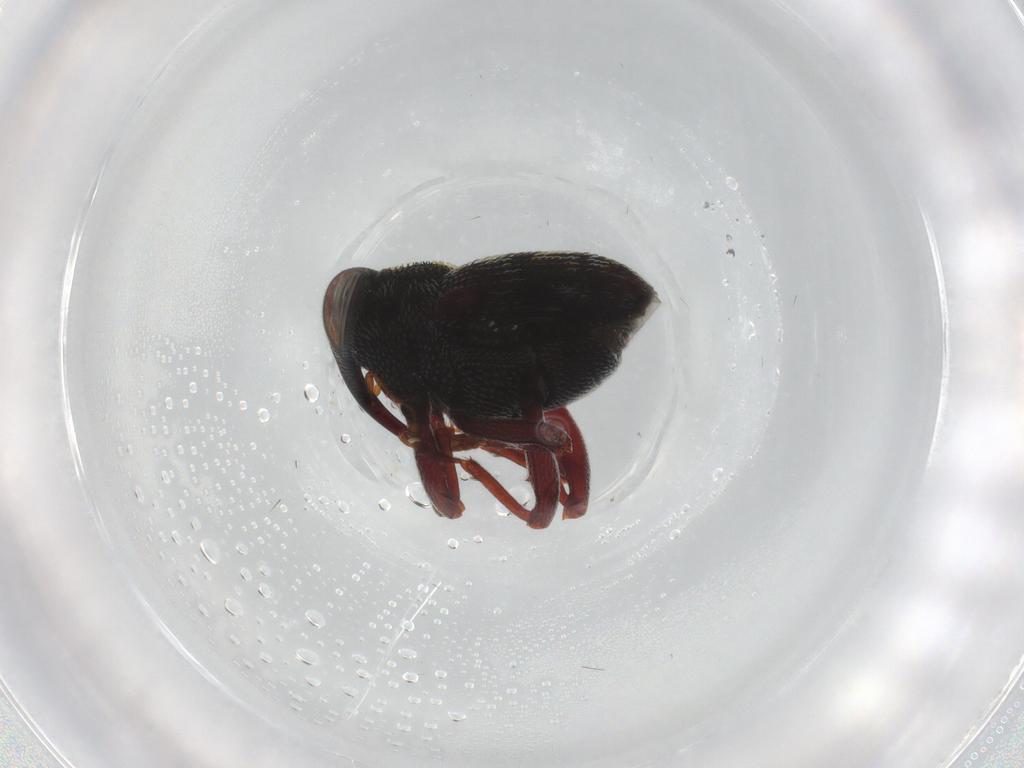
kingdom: Animalia
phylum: Arthropoda
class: Insecta
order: Coleoptera
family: Curculionidae
